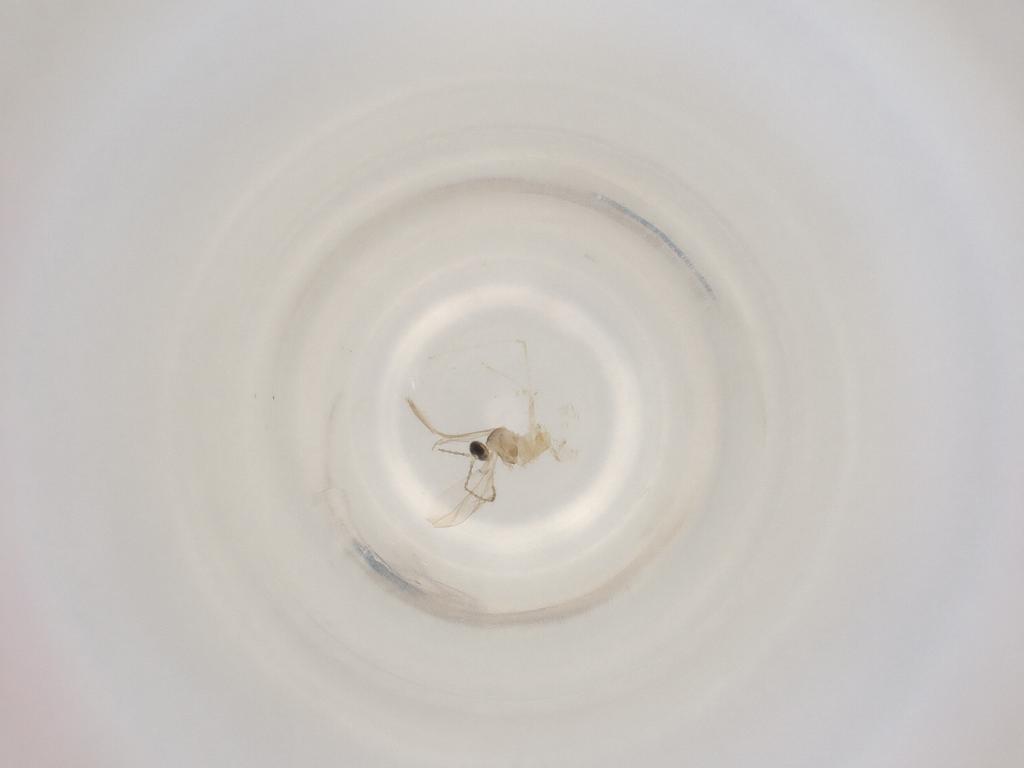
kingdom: Animalia
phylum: Arthropoda
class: Insecta
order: Diptera
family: Cecidomyiidae
